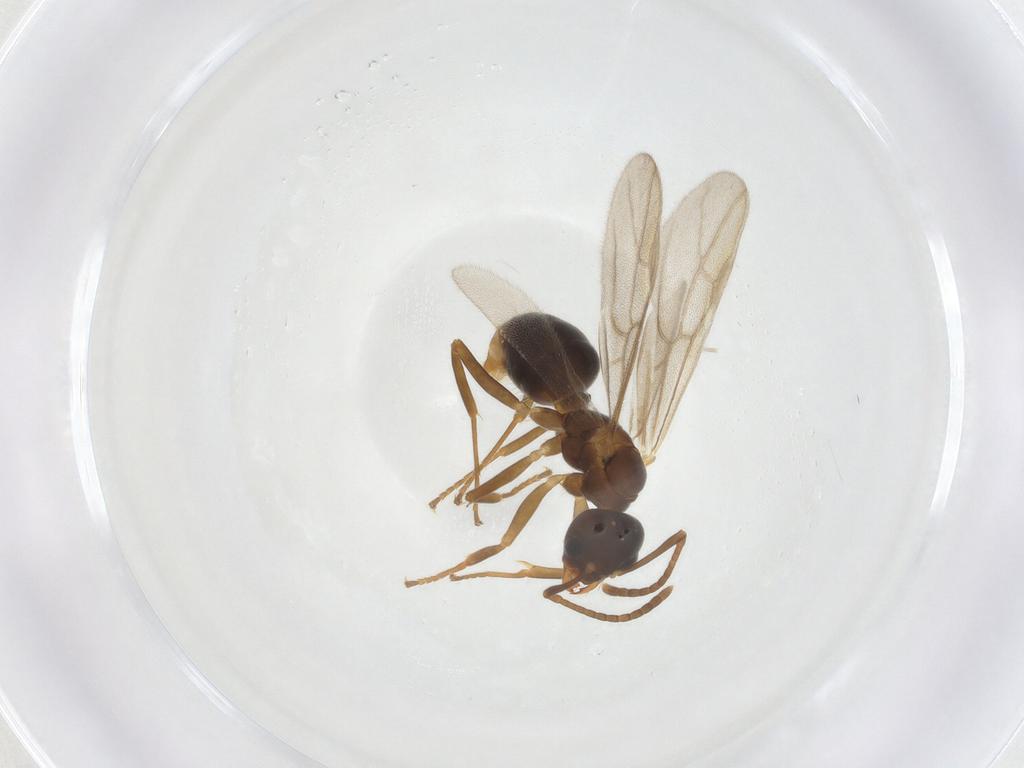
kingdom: Animalia
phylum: Arthropoda
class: Insecta
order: Hymenoptera
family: Formicidae
